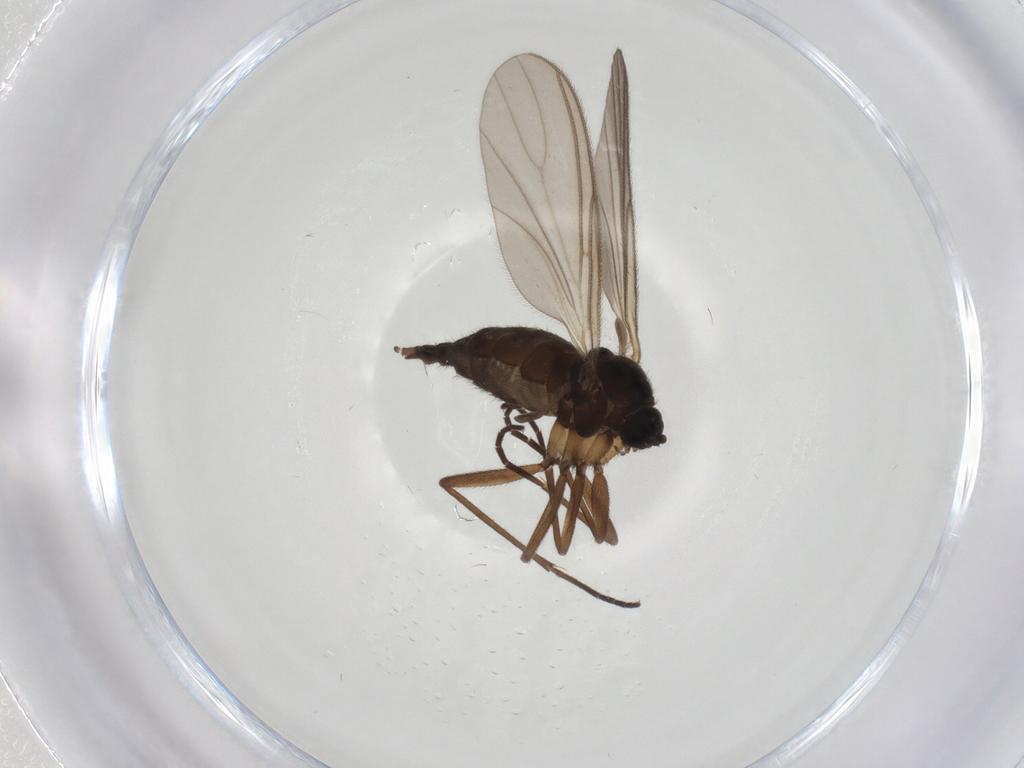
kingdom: Animalia
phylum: Arthropoda
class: Insecta
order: Diptera
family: Sciaridae
